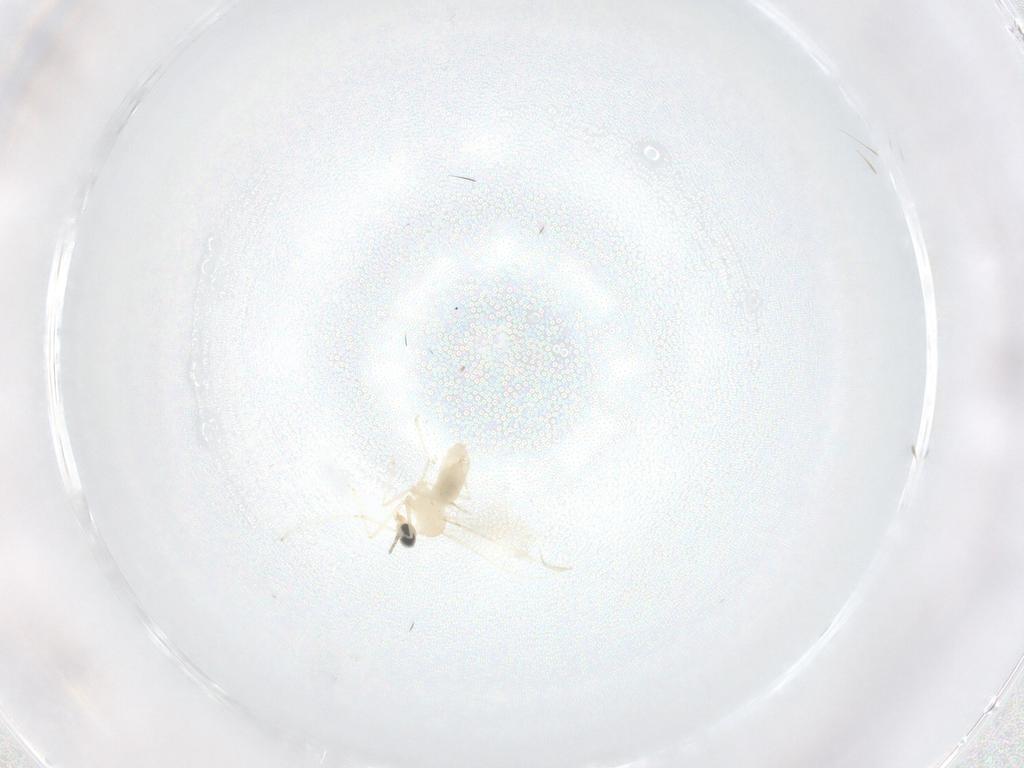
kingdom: Animalia
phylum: Arthropoda
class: Insecta
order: Diptera
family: Cecidomyiidae
